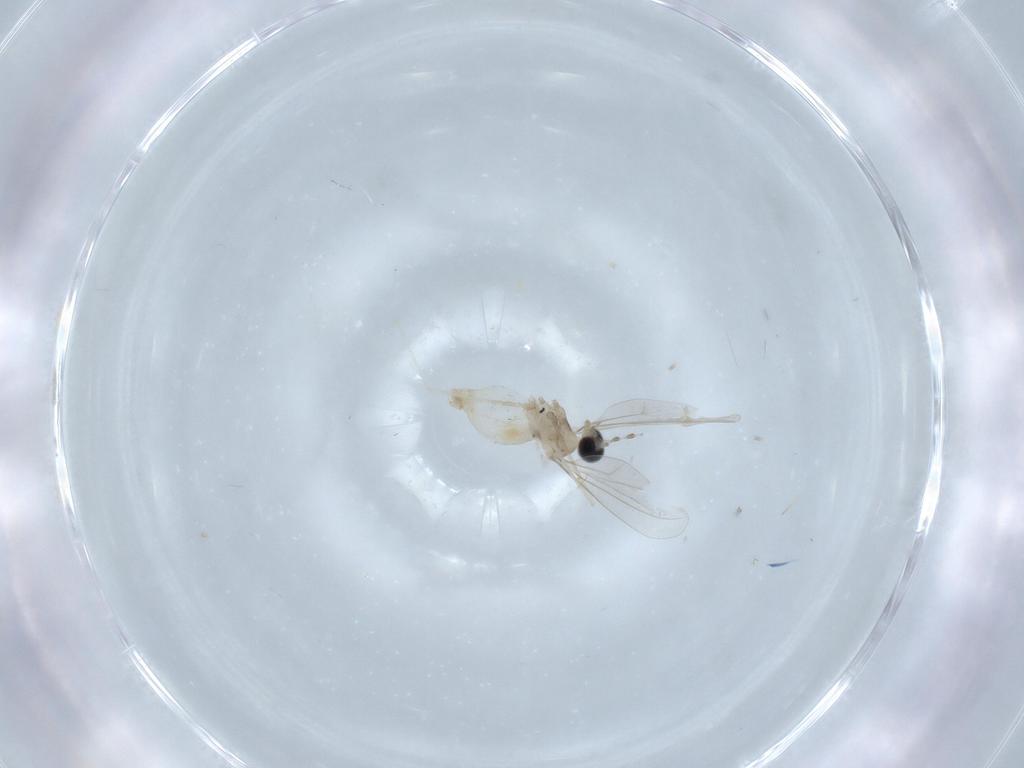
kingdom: Animalia
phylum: Arthropoda
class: Insecta
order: Diptera
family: Cecidomyiidae
